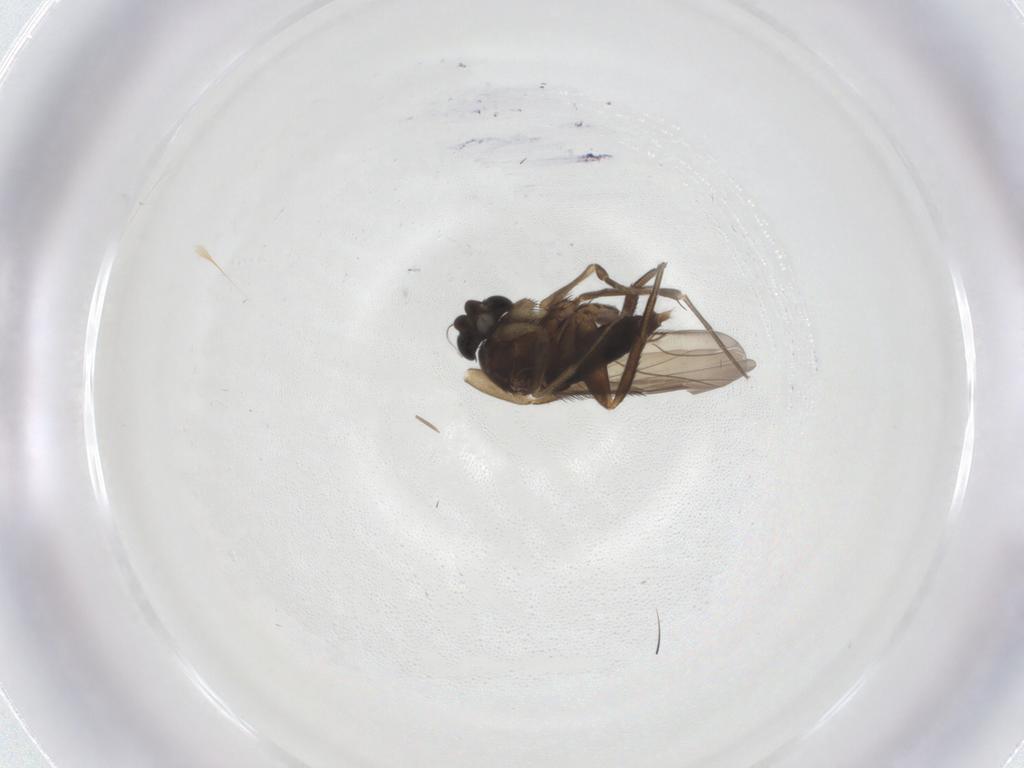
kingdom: Animalia
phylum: Arthropoda
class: Insecta
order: Diptera
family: Phoridae
